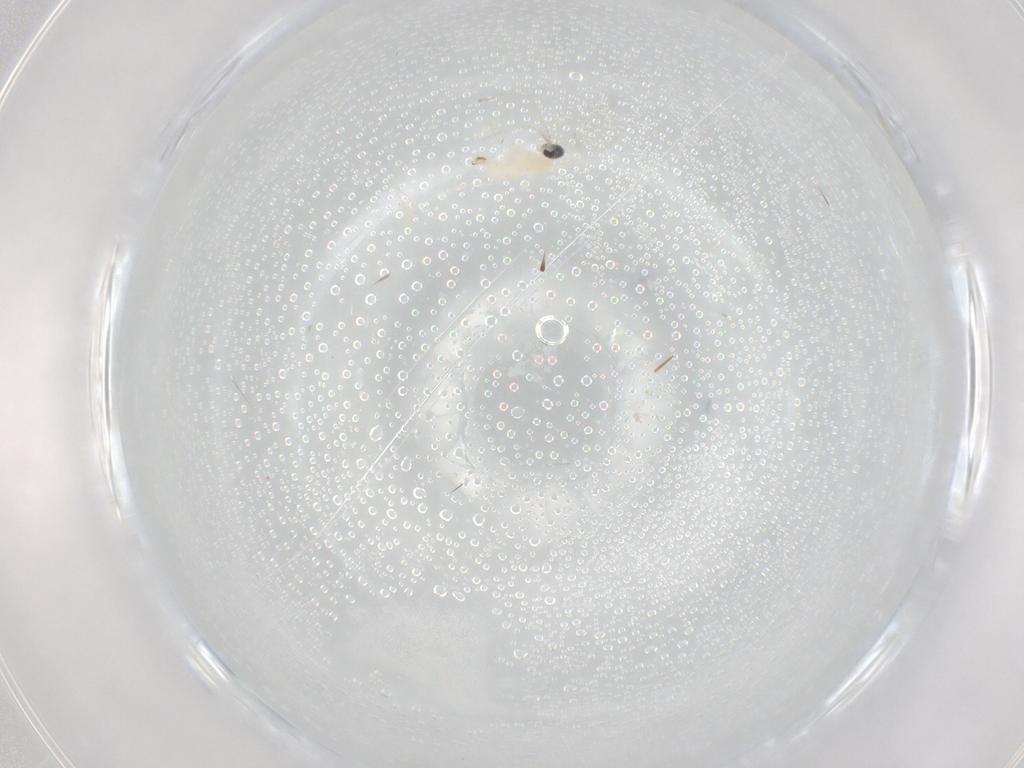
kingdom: Animalia
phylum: Arthropoda
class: Insecta
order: Diptera
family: Cecidomyiidae
